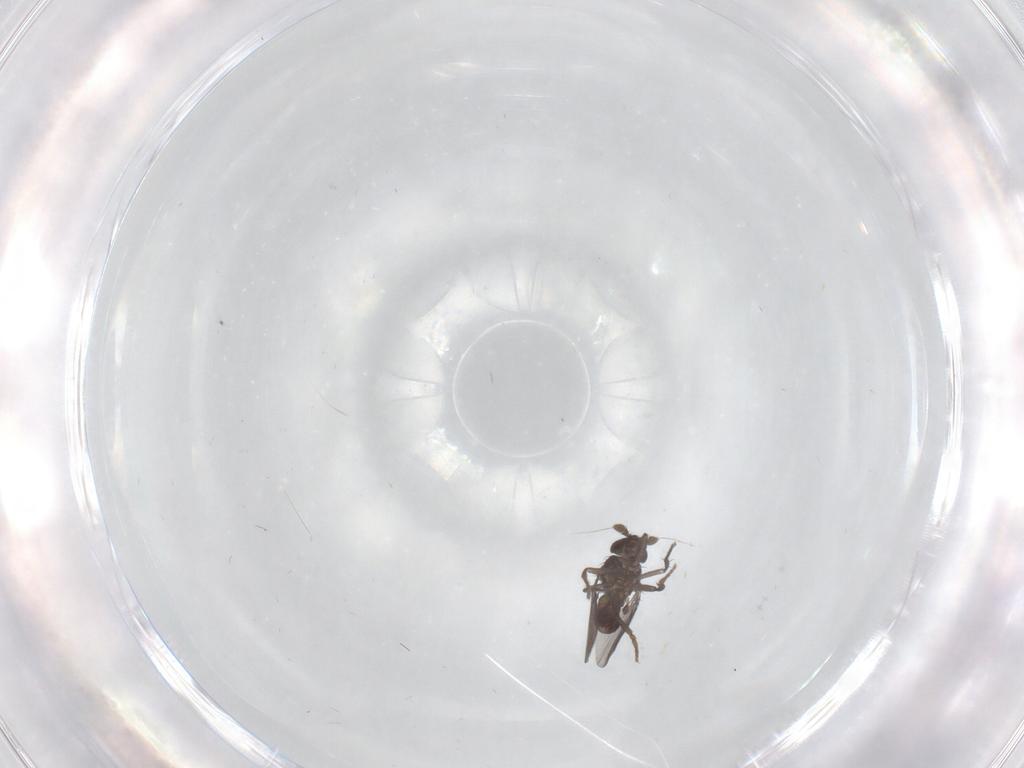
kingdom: Animalia
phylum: Arthropoda
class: Insecta
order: Diptera
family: Sphaeroceridae
